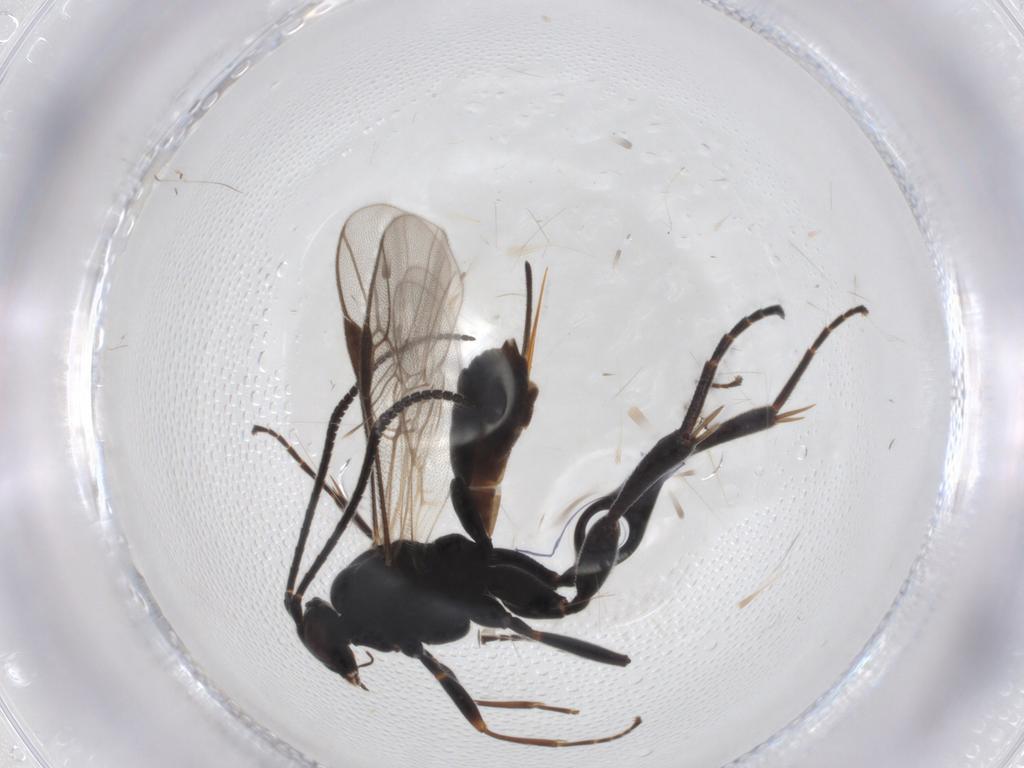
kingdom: Animalia
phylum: Arthropoda
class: Insecta
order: Hymenoptera
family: Braconidae
